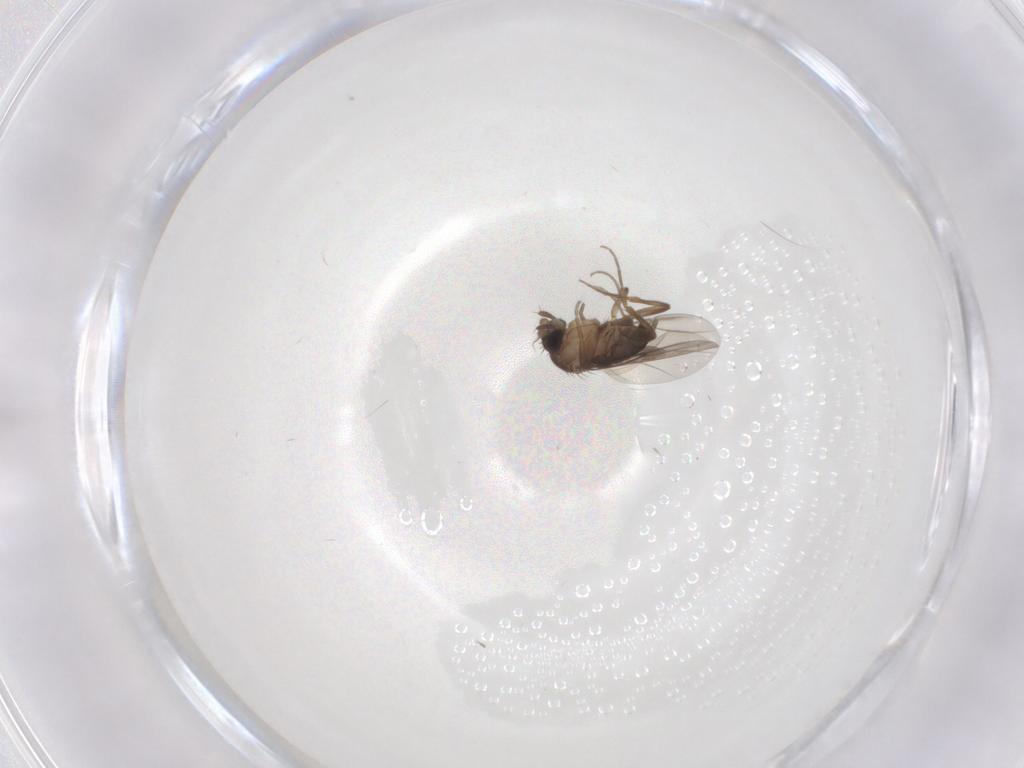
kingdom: Animalia
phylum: Arthropoda
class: Insecta
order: Diptera
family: Phoridae
